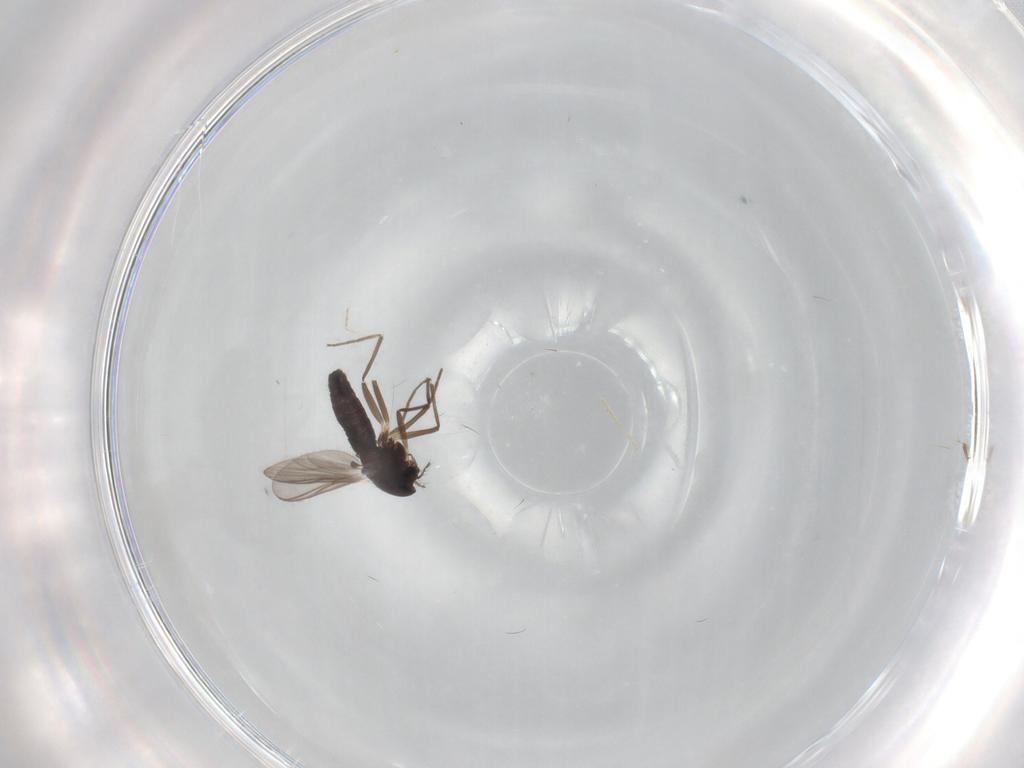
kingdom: Animalia
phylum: Arthropoda
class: Insecta
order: Diptera
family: Chironomidae
